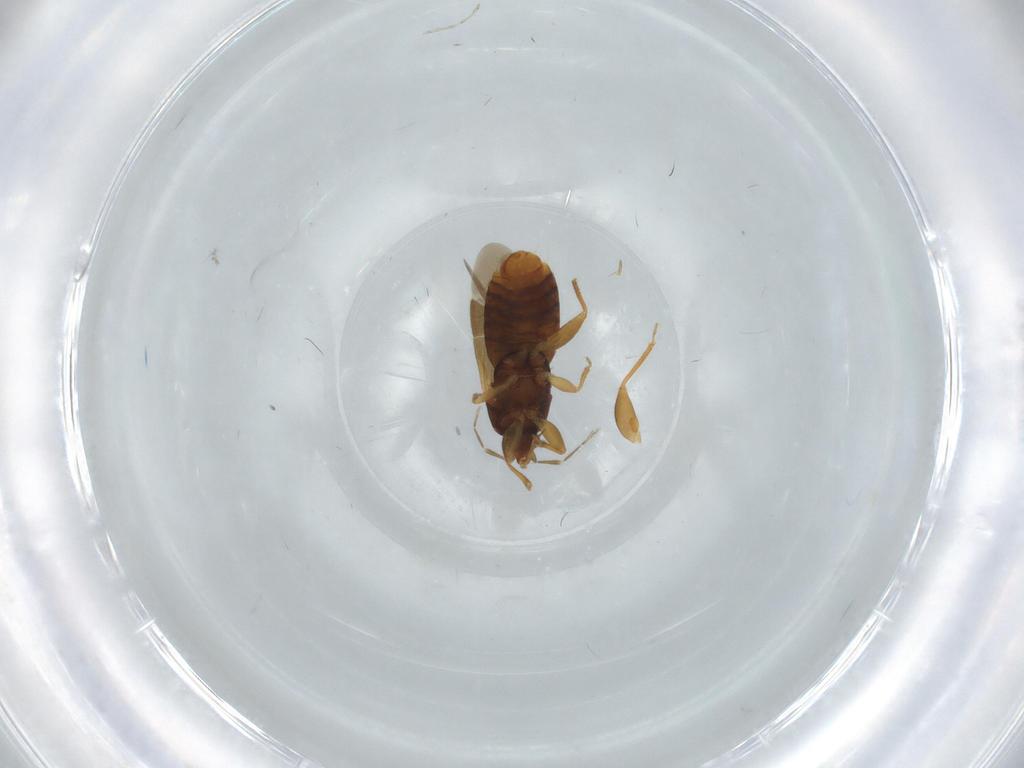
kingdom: Animalia
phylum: Arthropoda
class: Insecta
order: Hemiptera
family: Anthocoridae
